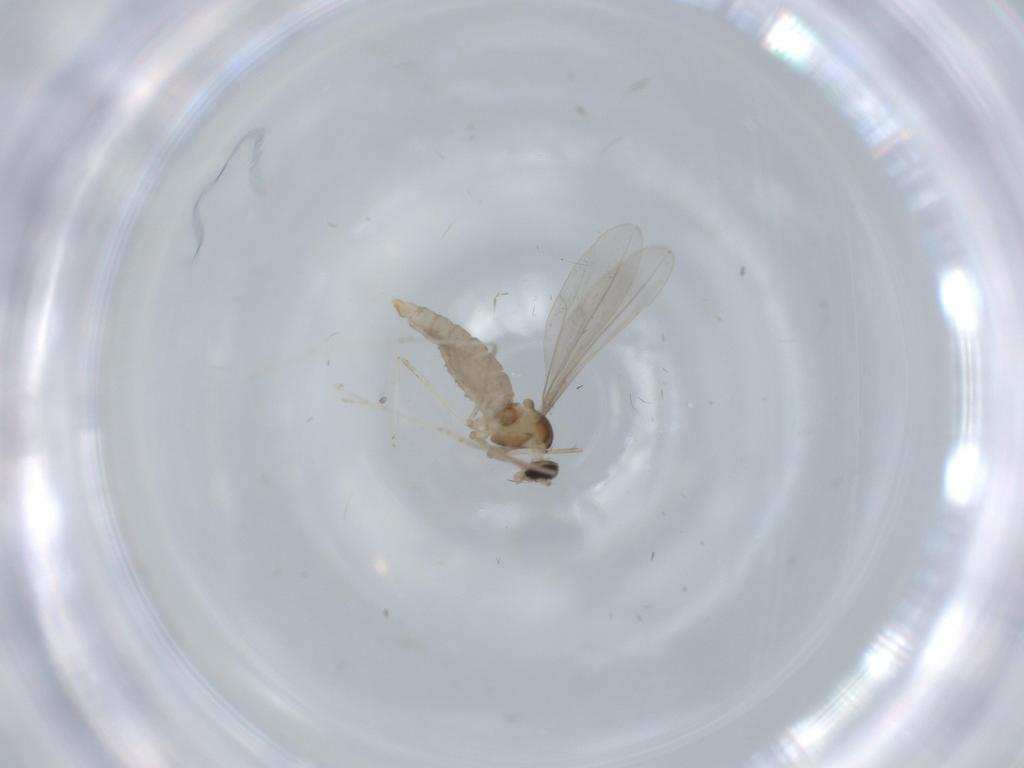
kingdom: Animalia
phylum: Arthropoda
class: Insecta
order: Diptera
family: Cecidomyiidae
